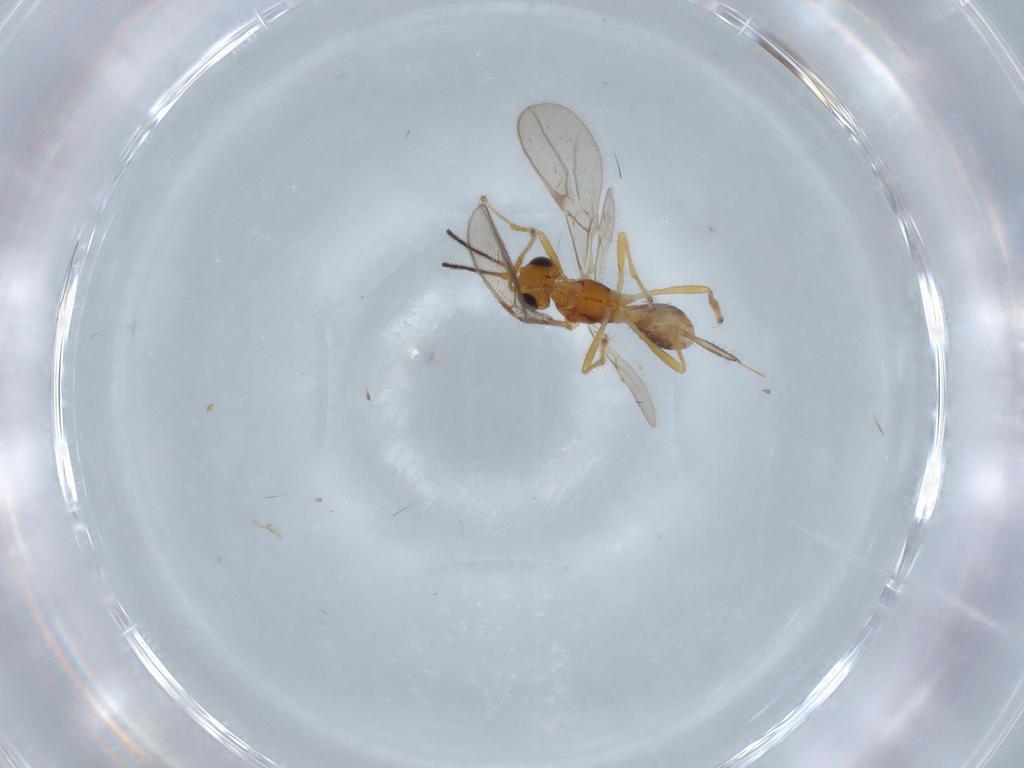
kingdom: Animalia
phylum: Arthropoda
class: Insecta
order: Hymenoptera
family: Braconidae
